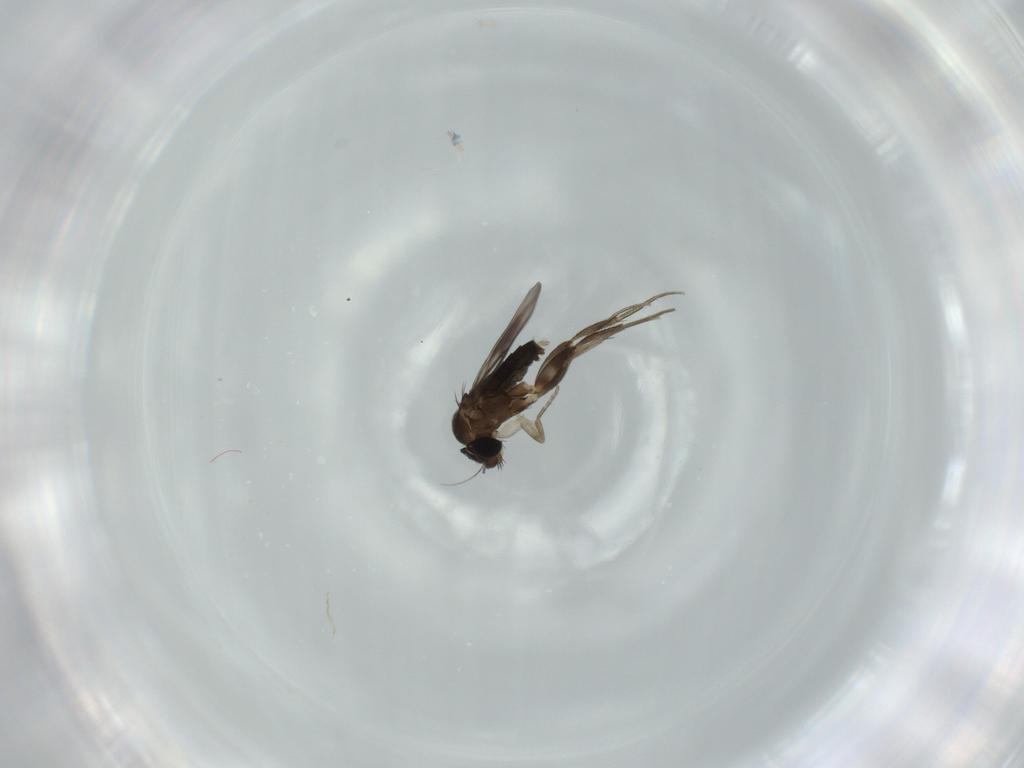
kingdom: Animalia
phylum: Arthropoda
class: Insecta
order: Diptera
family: Phoridae
